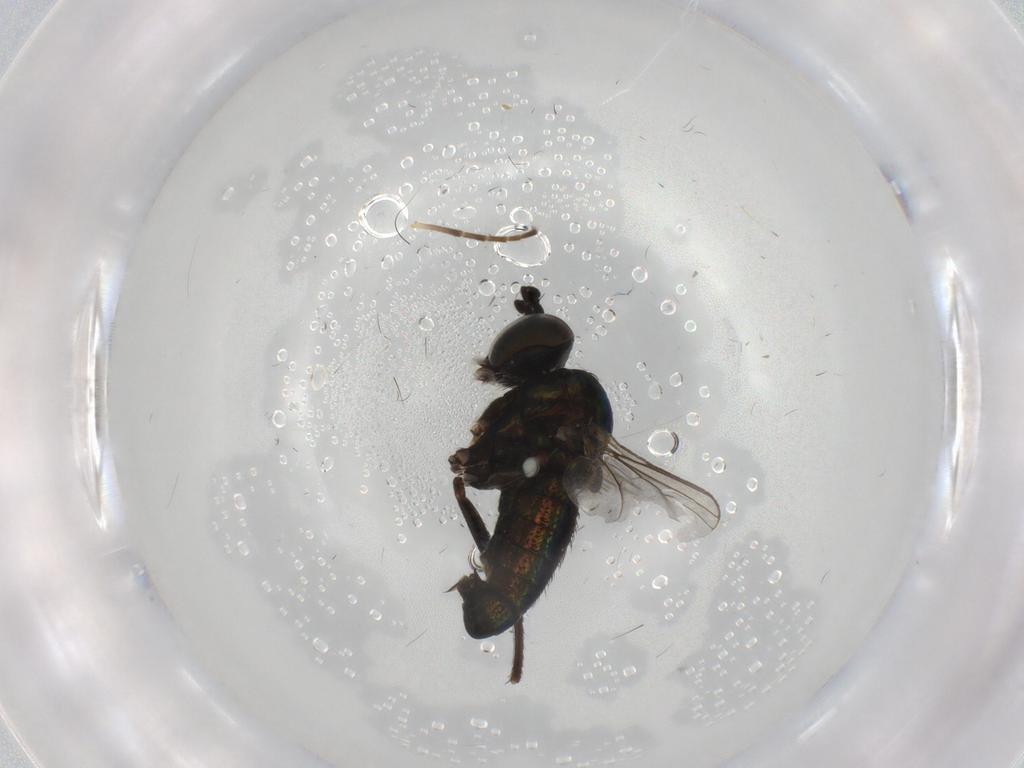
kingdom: Animalia
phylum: Arthropoda
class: Insecta
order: Diptera
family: Dolichopodidae
